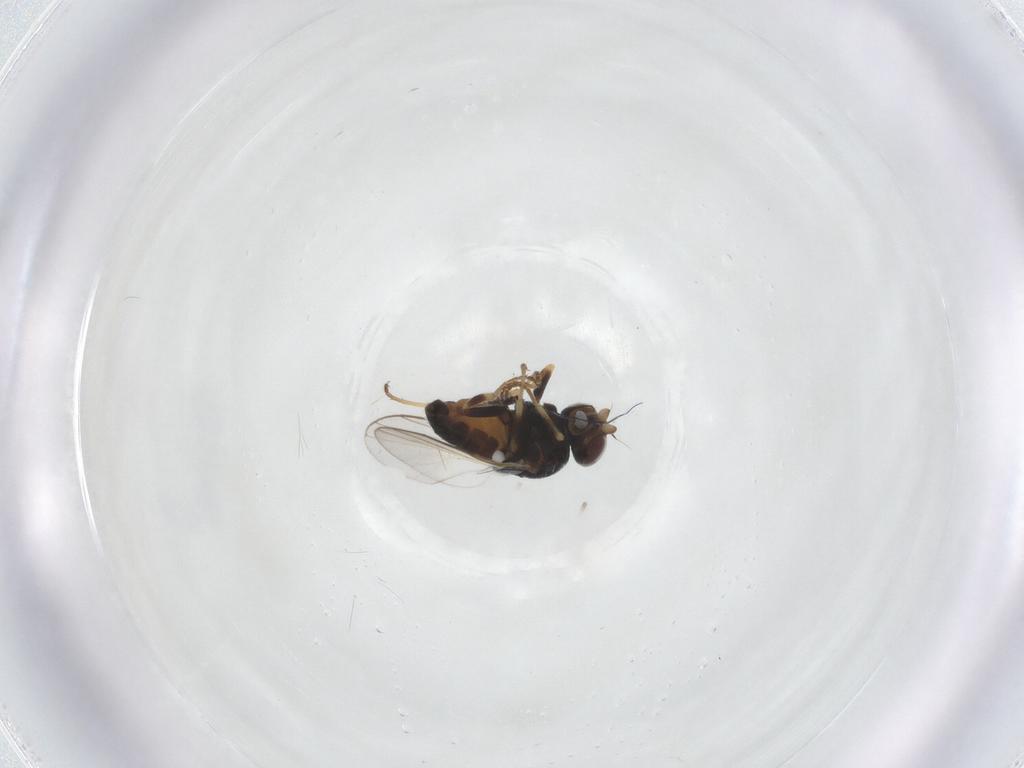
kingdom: Animalia
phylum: Arthropoda
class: Insecta
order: Diptera
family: Chloropidae
